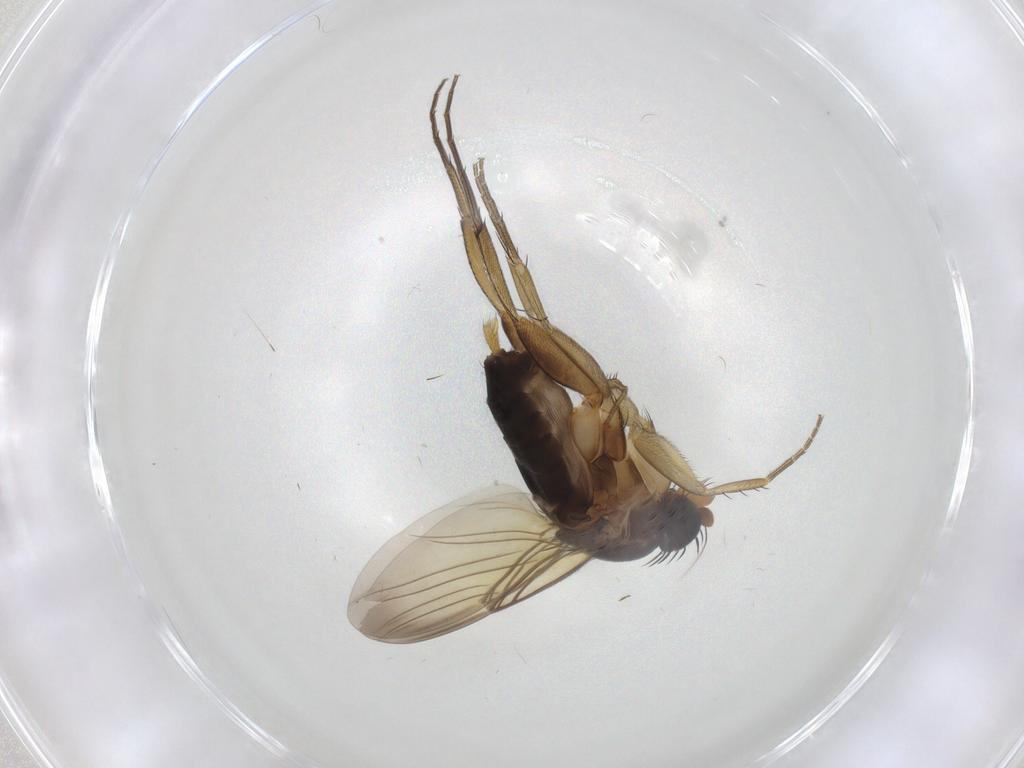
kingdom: Animalia
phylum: Arthropoda
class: Insecta
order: Diptera
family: Phoridae
